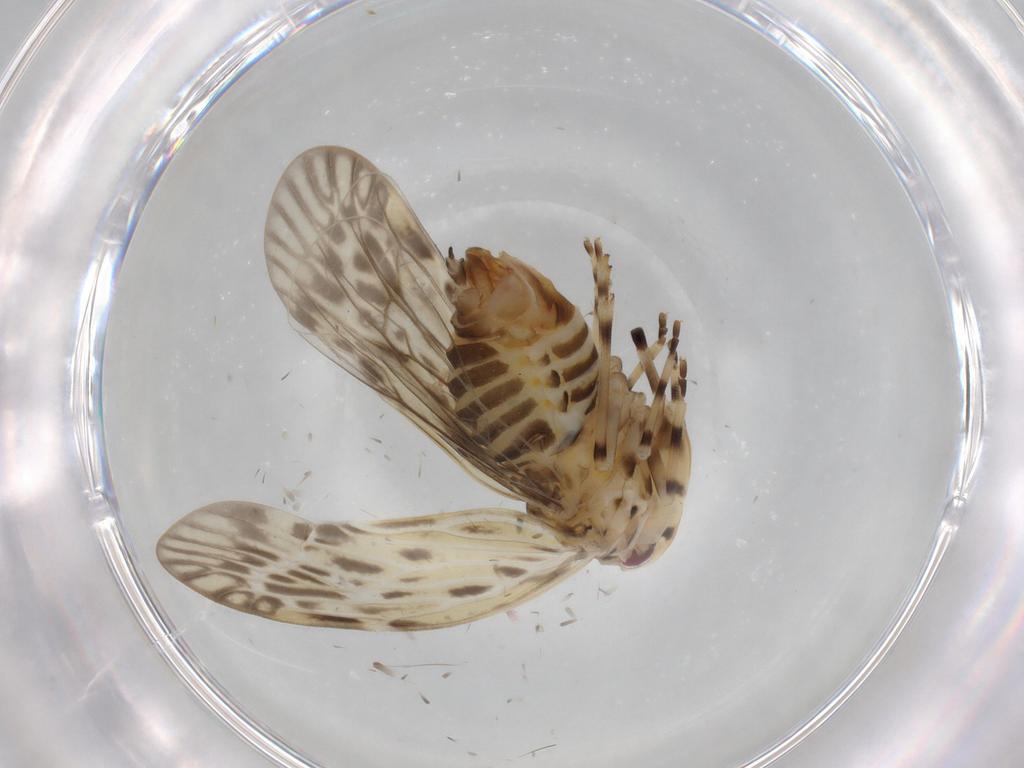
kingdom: Animalia
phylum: Arthropoda
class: Insecta
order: Hemiptera
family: Derbidae
